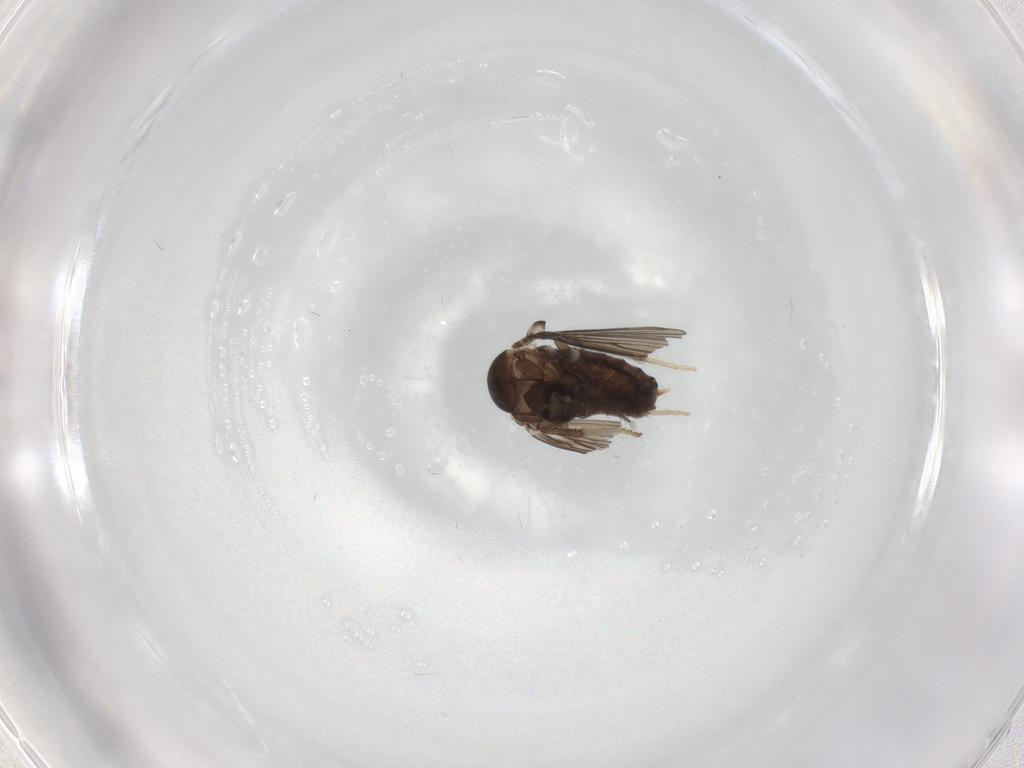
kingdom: Animalia
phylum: Arthropoda
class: Insecta
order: Diptera
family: Psychodidae
